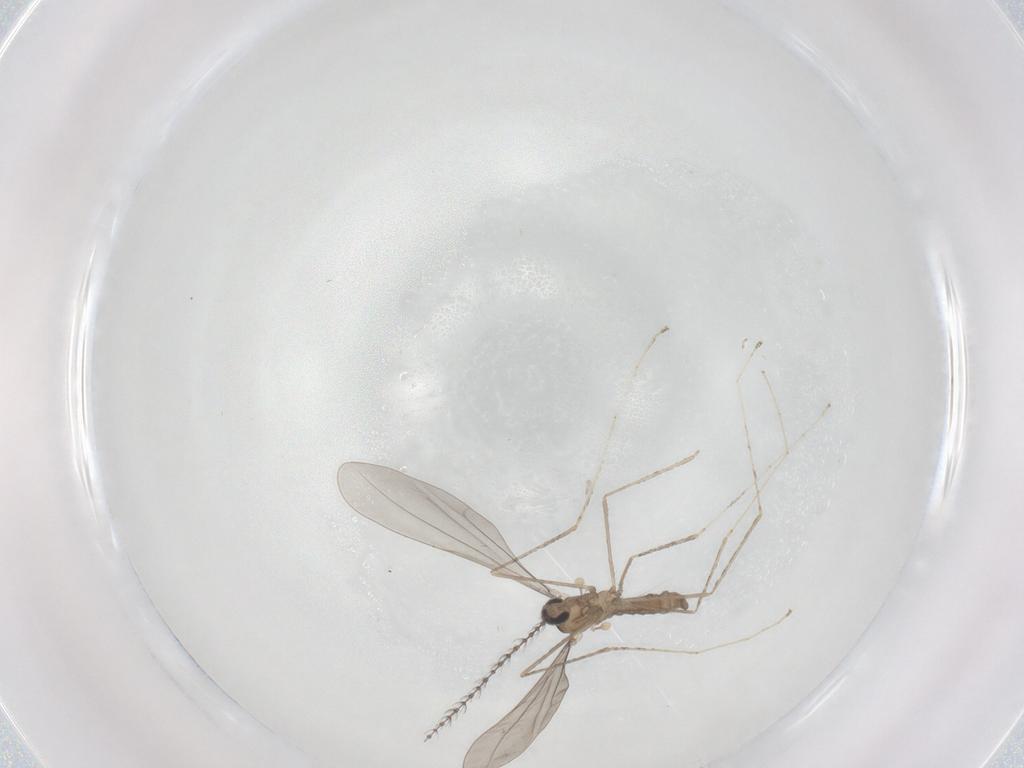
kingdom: Animalia
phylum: Arthropoda
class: Insecta
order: Diptera
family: Cecidomyiidae
